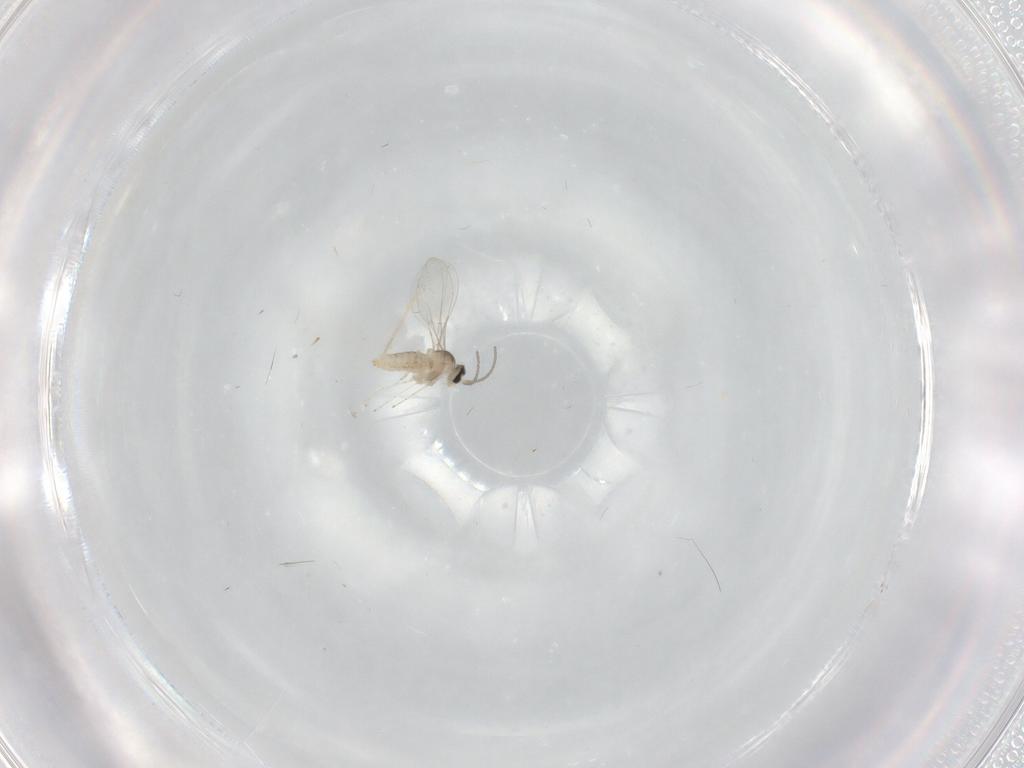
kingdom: Animalia
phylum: Arthropoda
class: Insecta
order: Diptera
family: Cecidomyiidae
